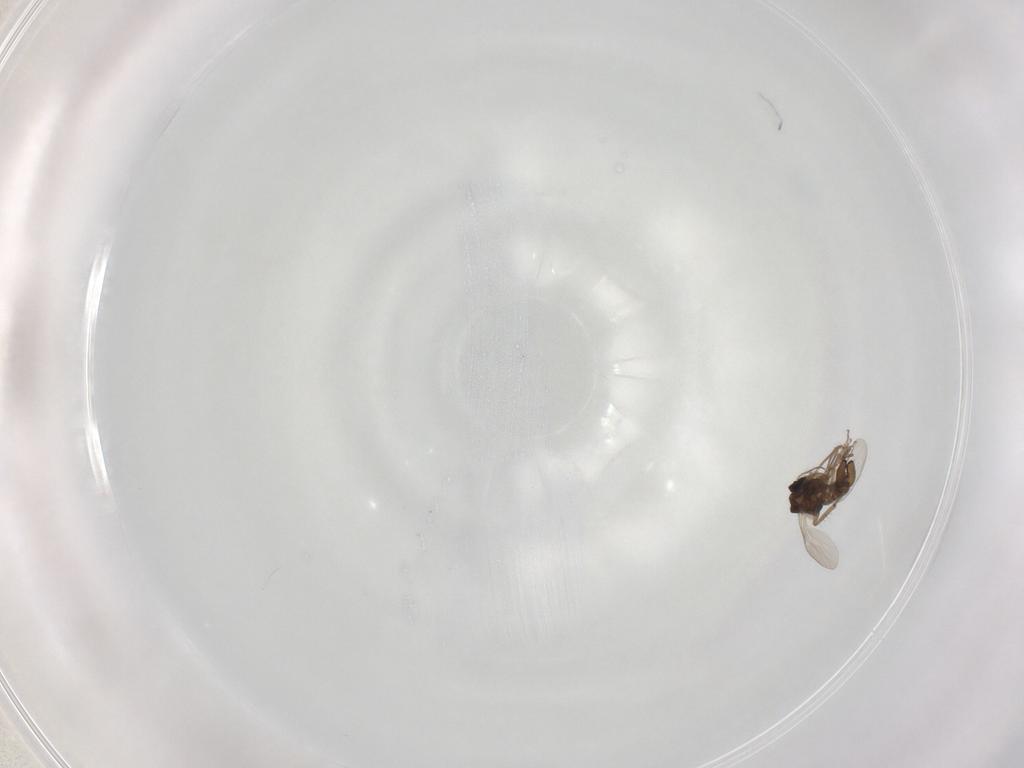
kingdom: Animalia
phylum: Arthropoda
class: Insecta
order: Diptera
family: Ceratopogonidae
